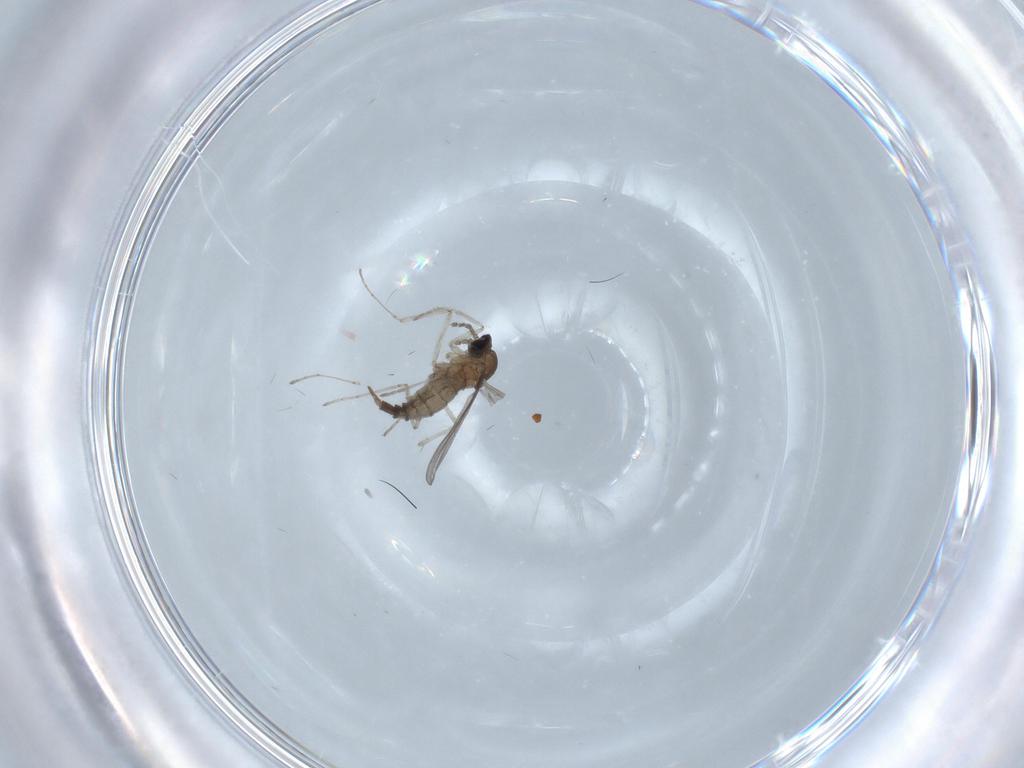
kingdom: Animalia
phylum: Arthropoda
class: Insecta
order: Diptera
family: Cecidomyiidae
